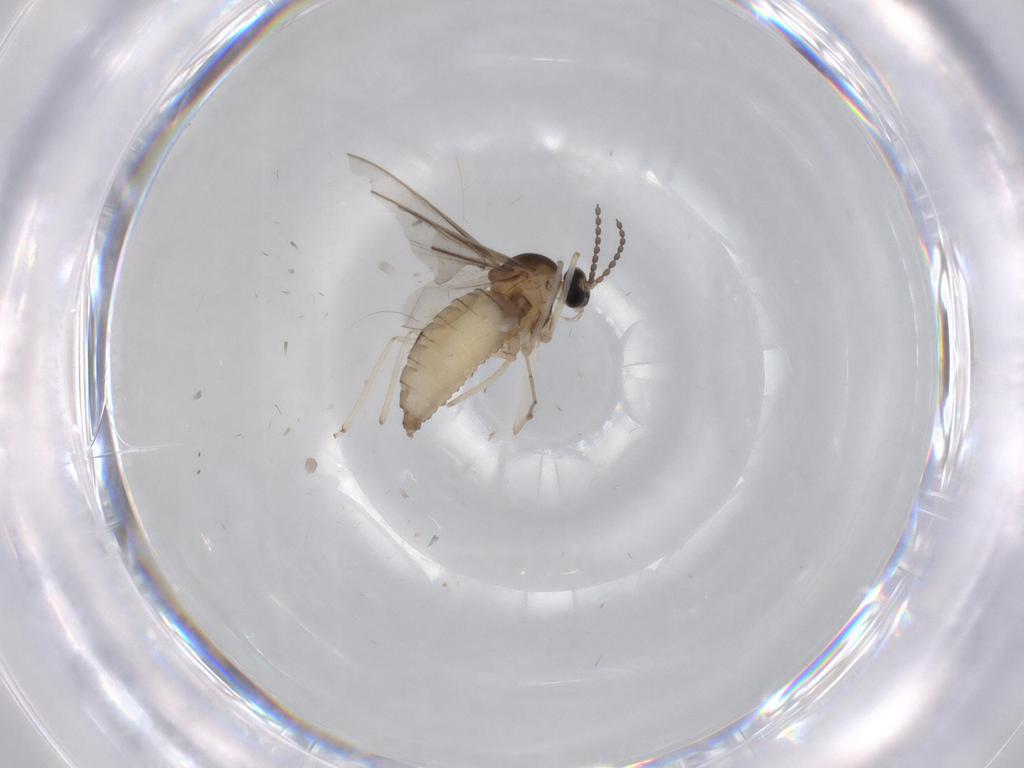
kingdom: Animalia
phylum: Arthropoda
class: Insecta
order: Diptera
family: Cecidomyiidae
